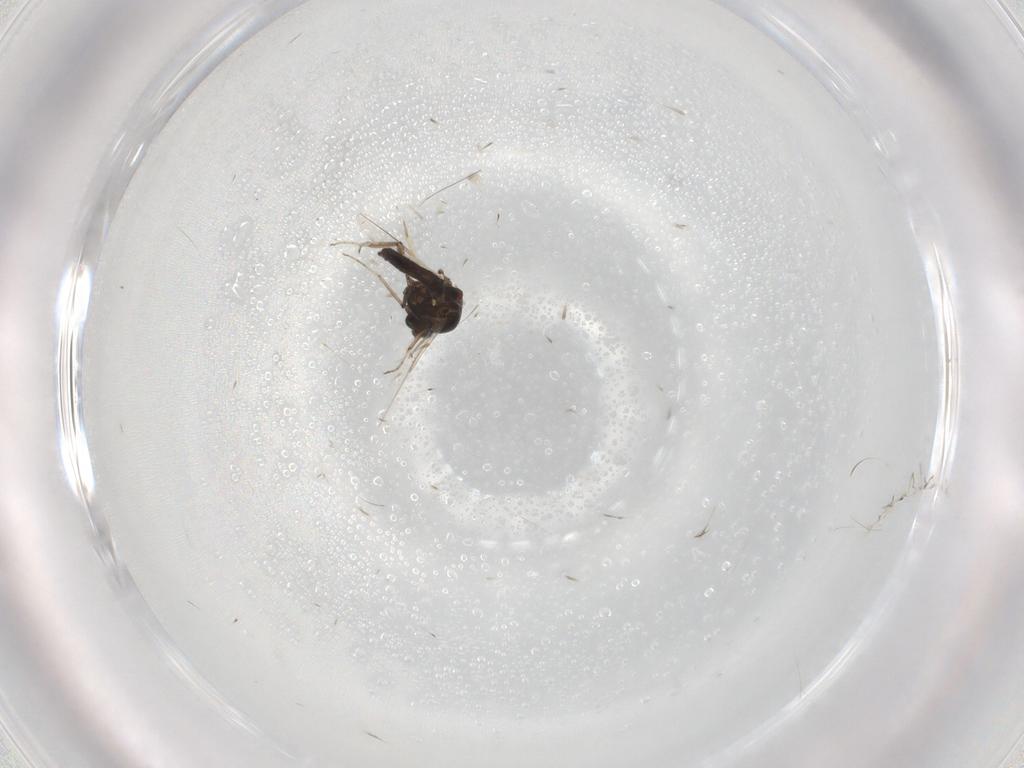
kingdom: Animalia
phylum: Arthropoda
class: Insecta
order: Diptera
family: Ceratopogonidae
